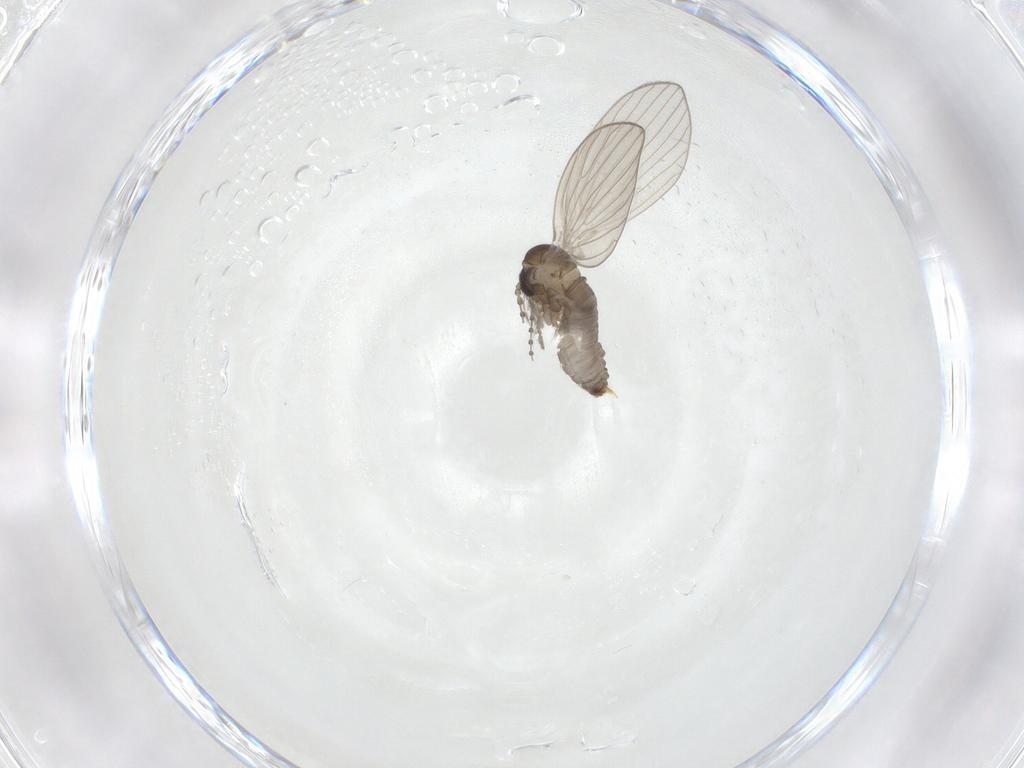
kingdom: Animalia
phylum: Arthropoda
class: Insecta
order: Diptera
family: Psychodidae
